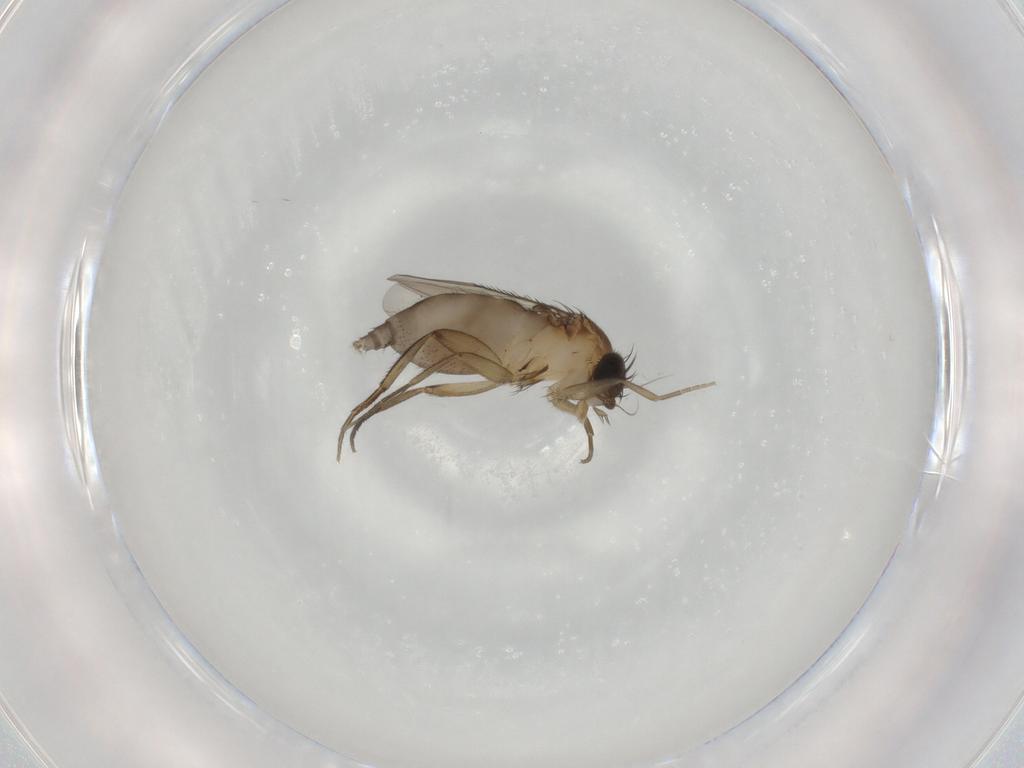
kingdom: Animalia
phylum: Arthropoda
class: Insecta
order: Diptera
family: Phoridae
